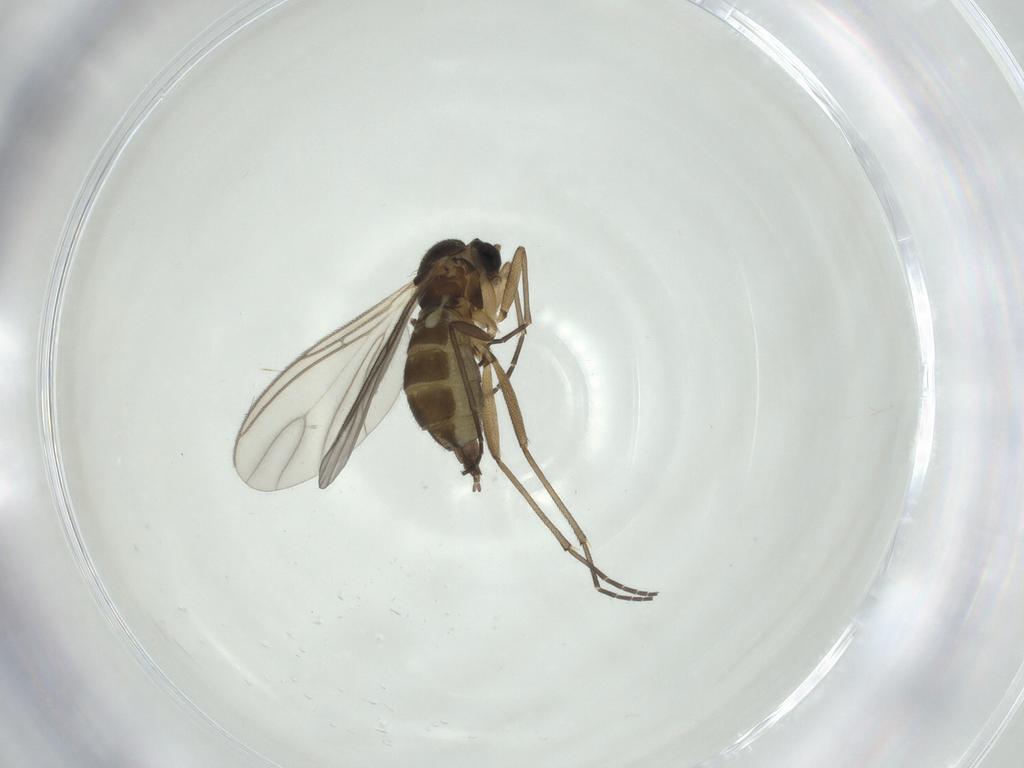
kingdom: Animalia
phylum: Arthropoda
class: Insecta
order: Diptera
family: Mycetophilidae
